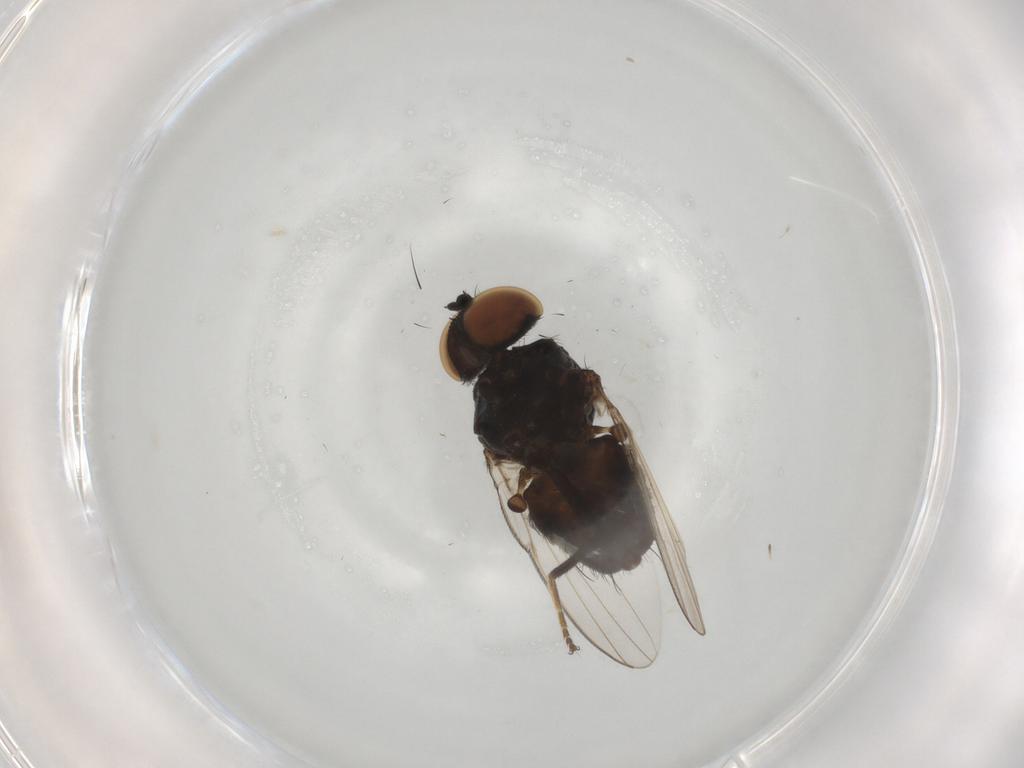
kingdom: Animalia
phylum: Arthropoda
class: Insecta
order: Diptera
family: Milichiidae
